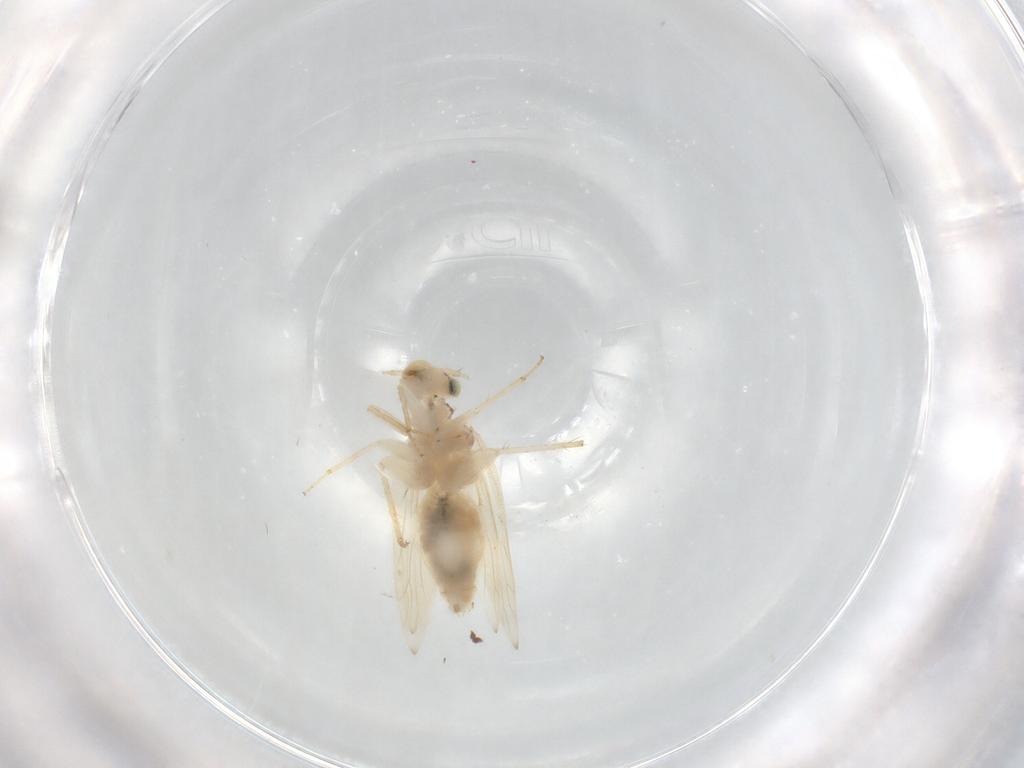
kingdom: Animalia
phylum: Arthropoda
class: Insecta
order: Psocodea
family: Lepidopsocidae
